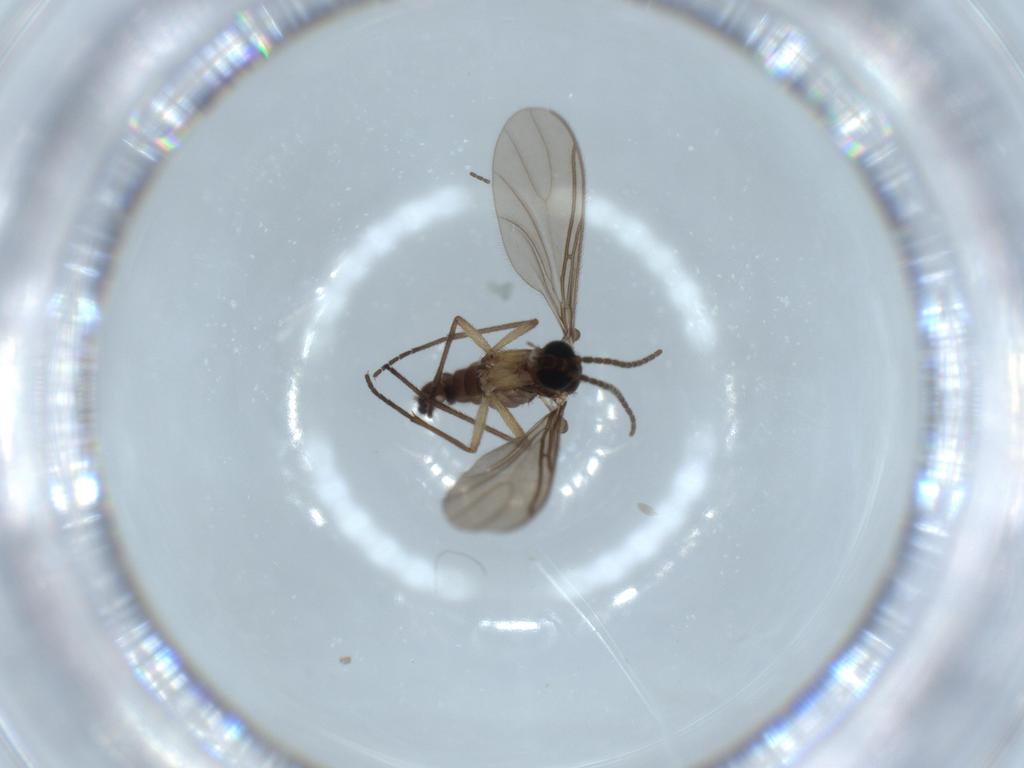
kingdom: Animalia
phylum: Arthropoda
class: Insecta
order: Diptera
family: Sciaridae
